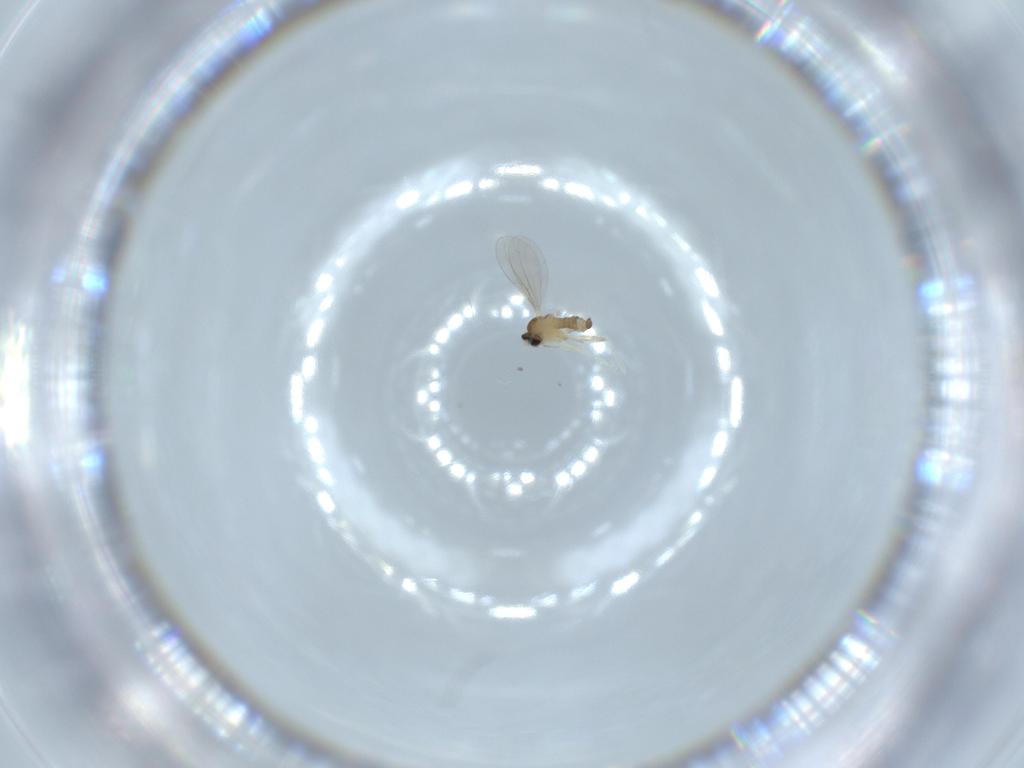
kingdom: Animalia
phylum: Arthropoda
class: Insecta
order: Diptera
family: Cecidomyiidae
